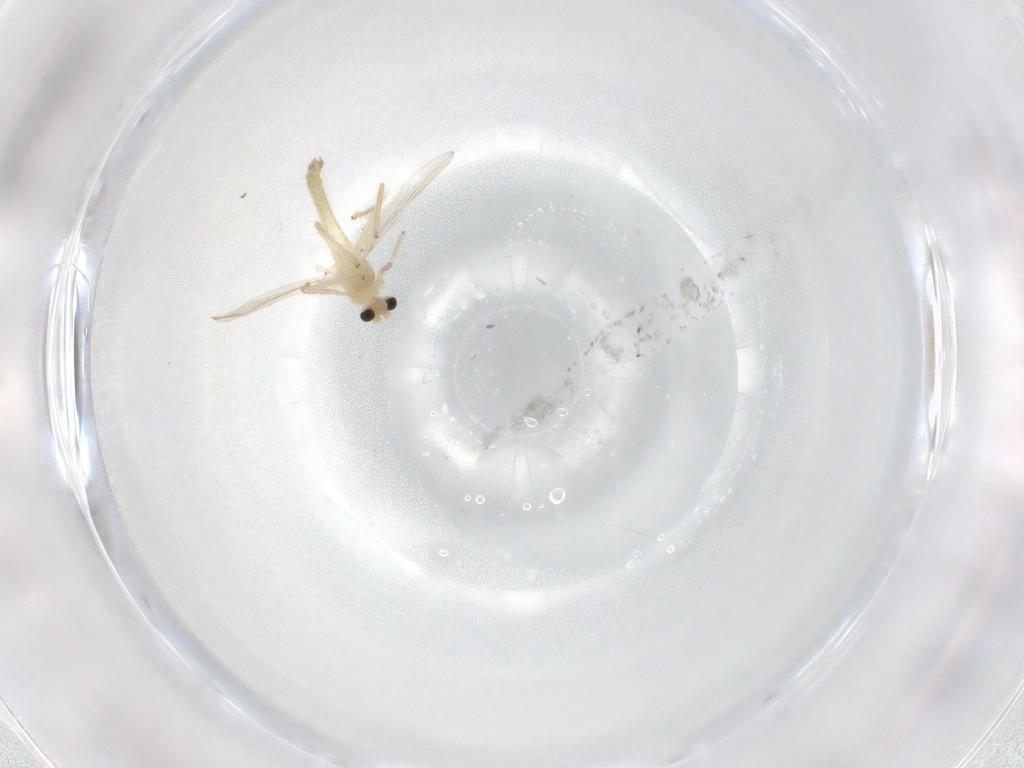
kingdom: Animalia
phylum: Arthropoda
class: Insecta
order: Diptera
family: Chironomidae
